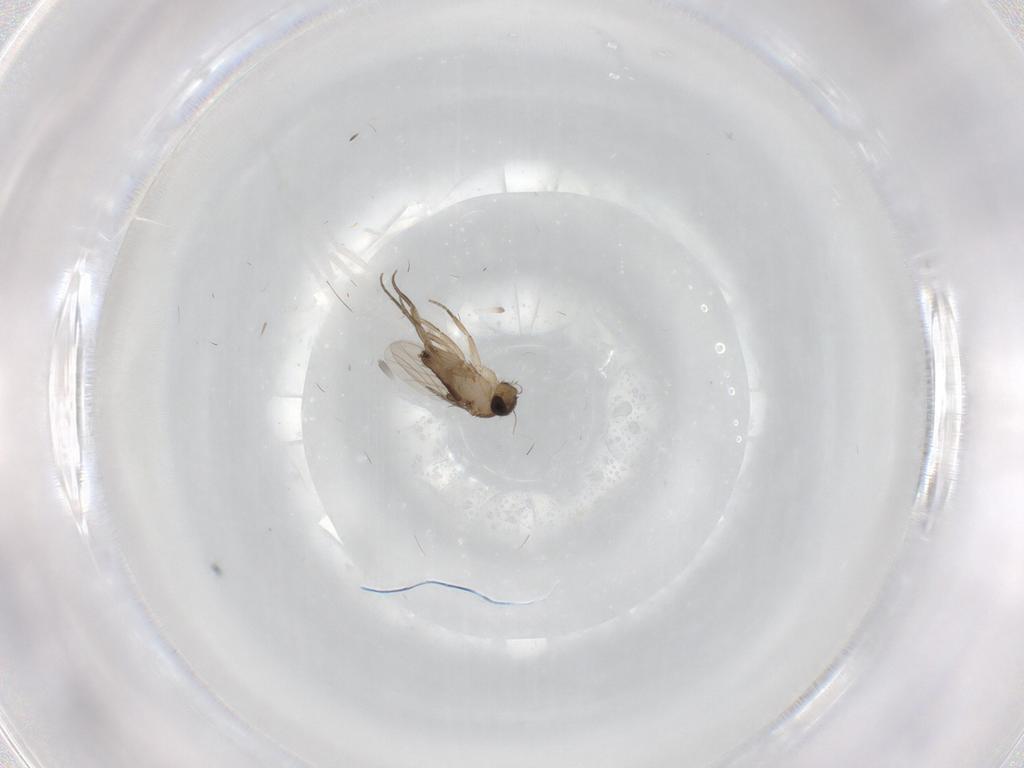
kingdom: Animalia
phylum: Arthropoda
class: Insecta
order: Diptera
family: Phoridae
